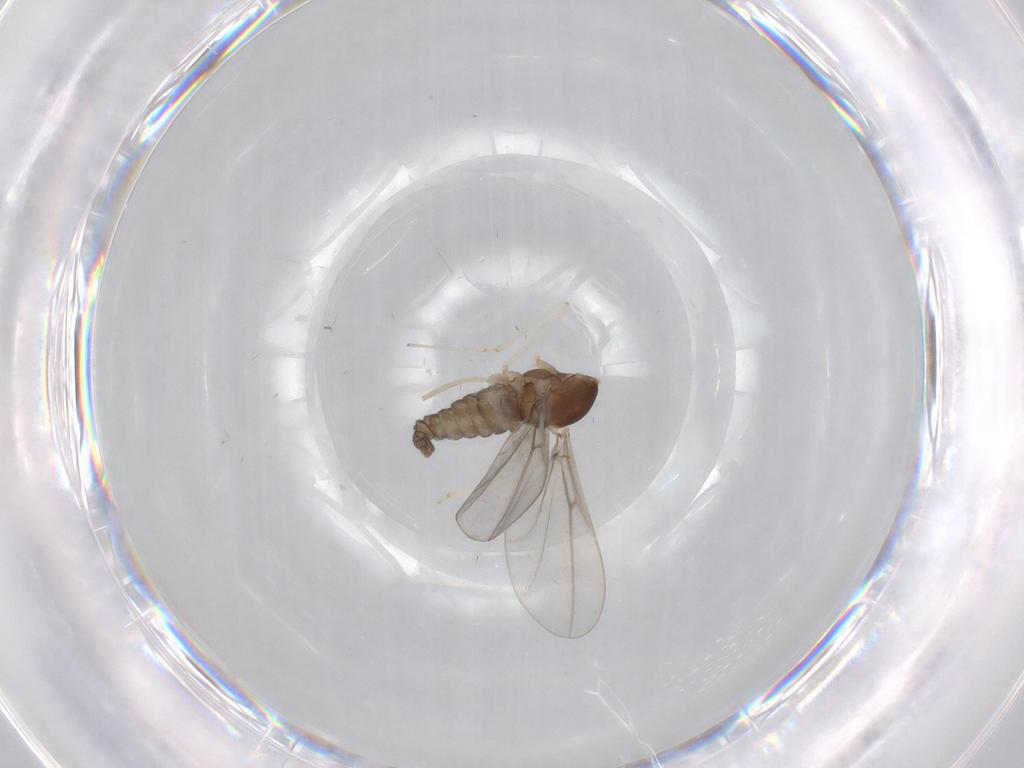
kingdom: Animalia
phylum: Arthropoda
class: Insecta
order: Diptera
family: Cecidomyiidae
